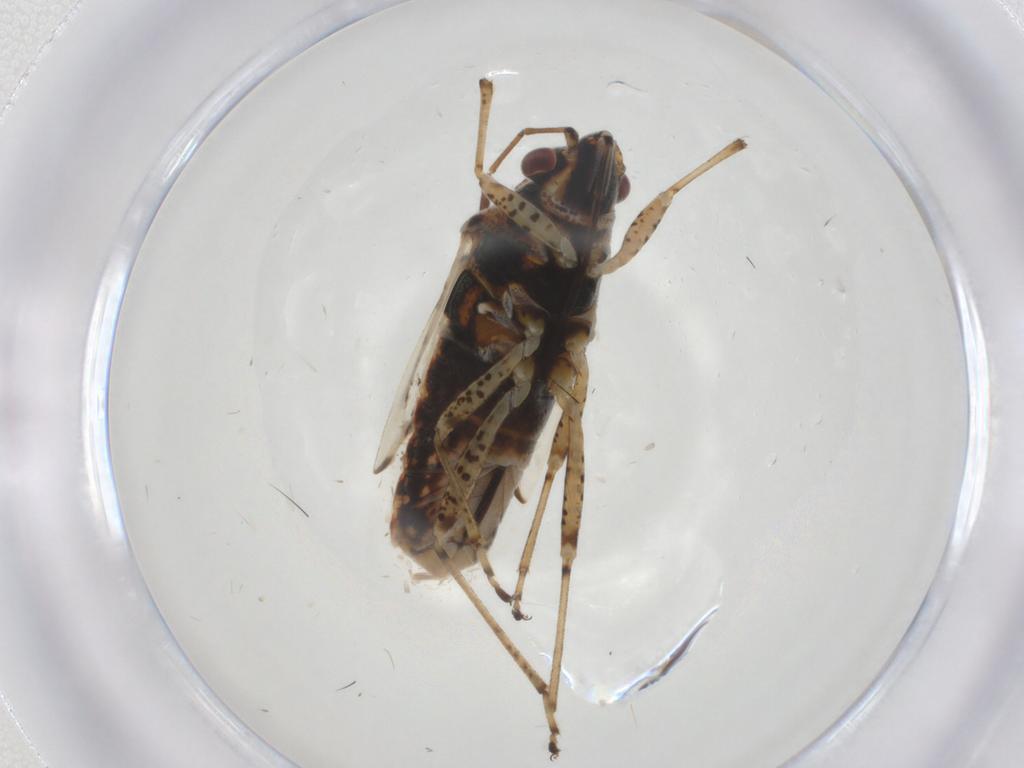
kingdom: Animalia
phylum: Arthropoda
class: Insecta
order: Hemiptera
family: Lygaeidae
